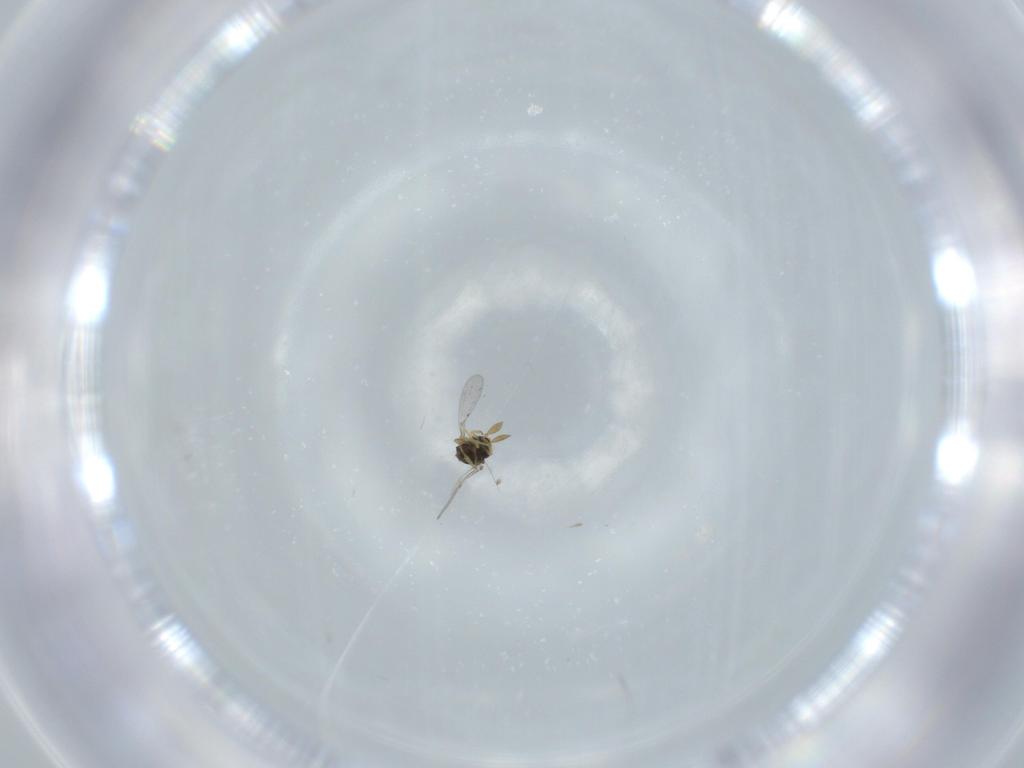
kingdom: Animalia
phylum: Arthropoda
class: Insecta
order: Hymenoptera
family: Encyrtidae
